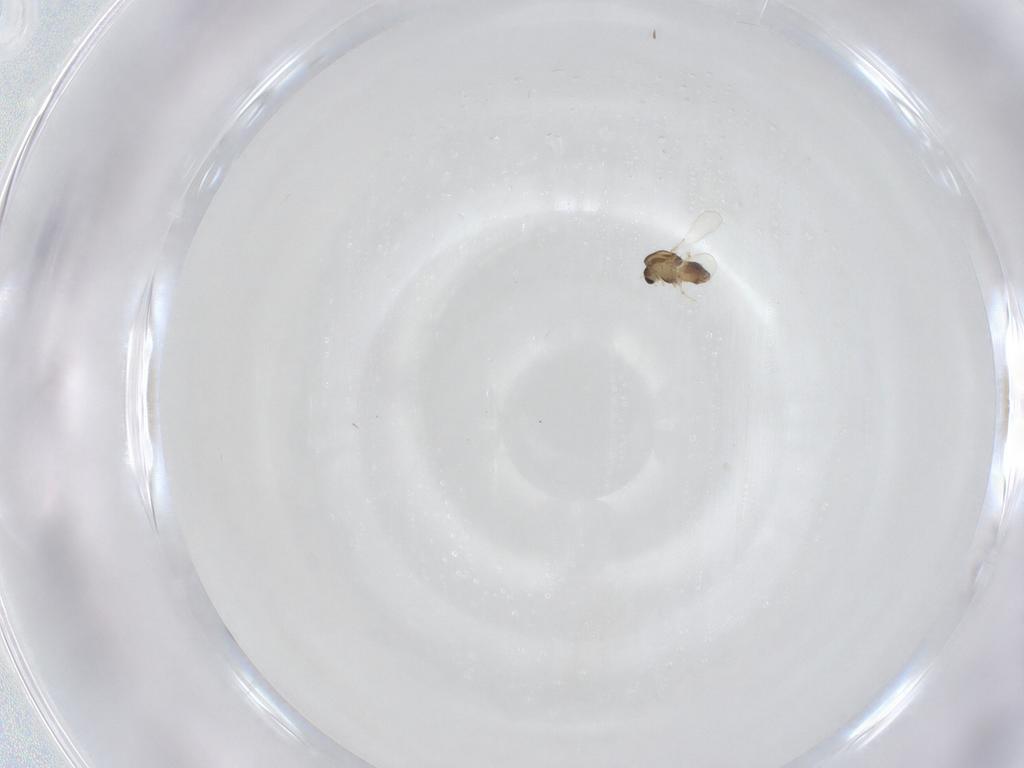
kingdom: Animalia
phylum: Arthropoda
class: Insecta
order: Diptera
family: Chironomidae
